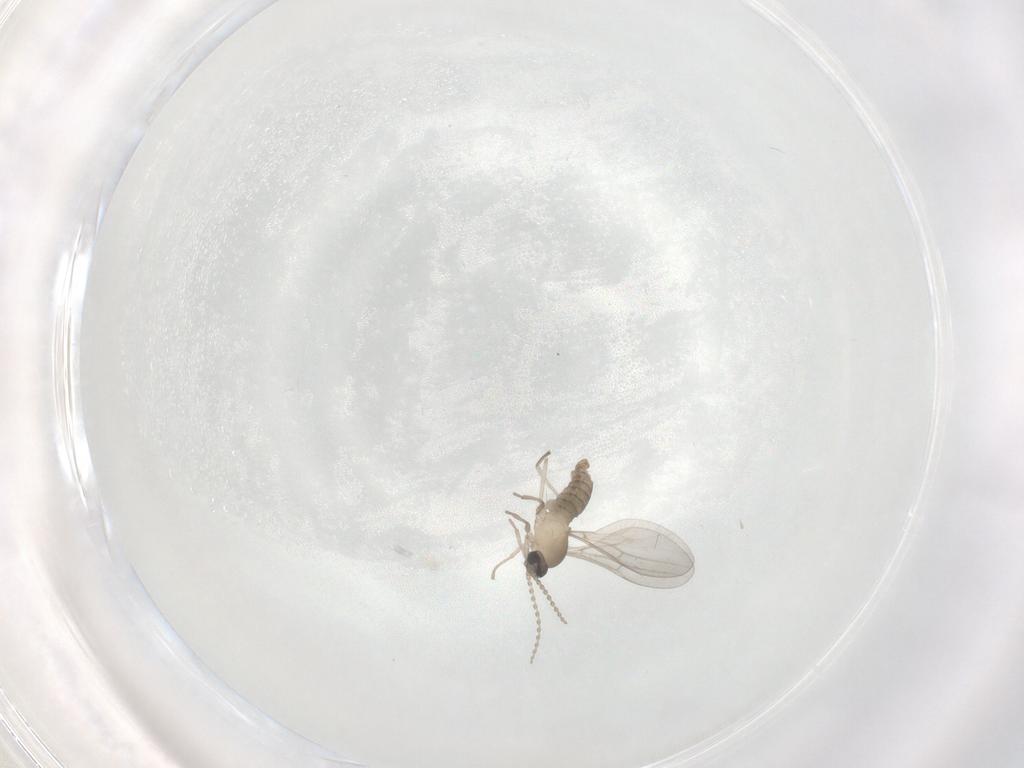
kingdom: Animalia
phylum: Arthropoda
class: Insecta
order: Diptera
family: Cecidomyiidae
